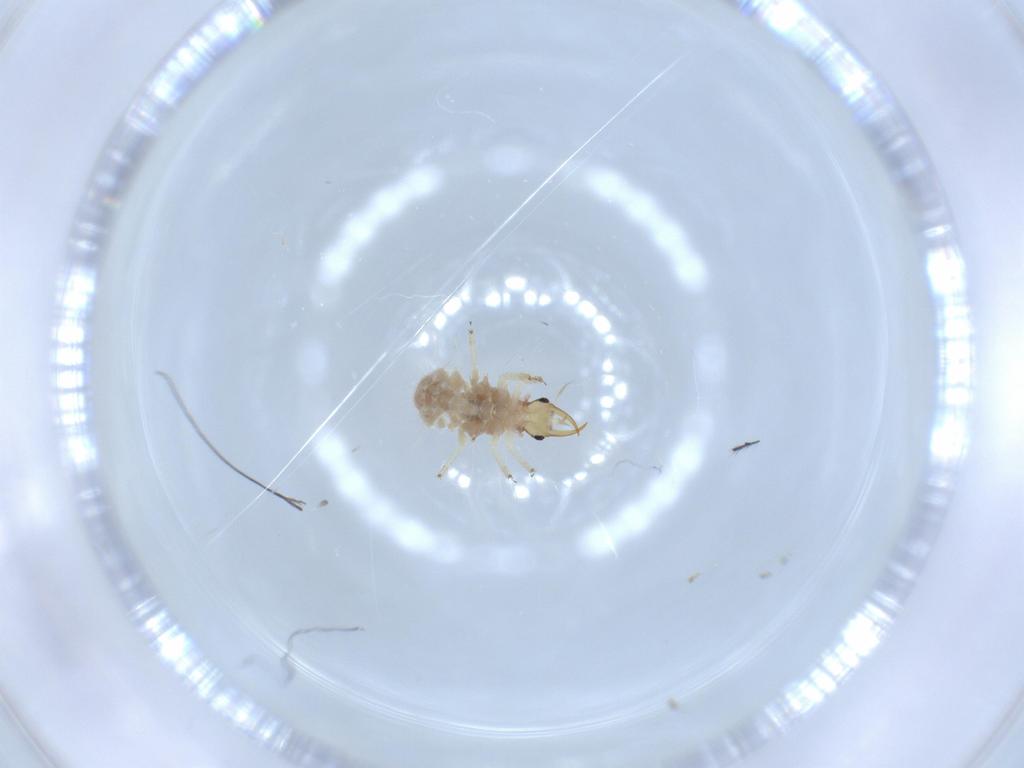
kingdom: Animalia
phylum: Arthropoda
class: Insecta
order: Neuroptera
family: Chrysopidae
